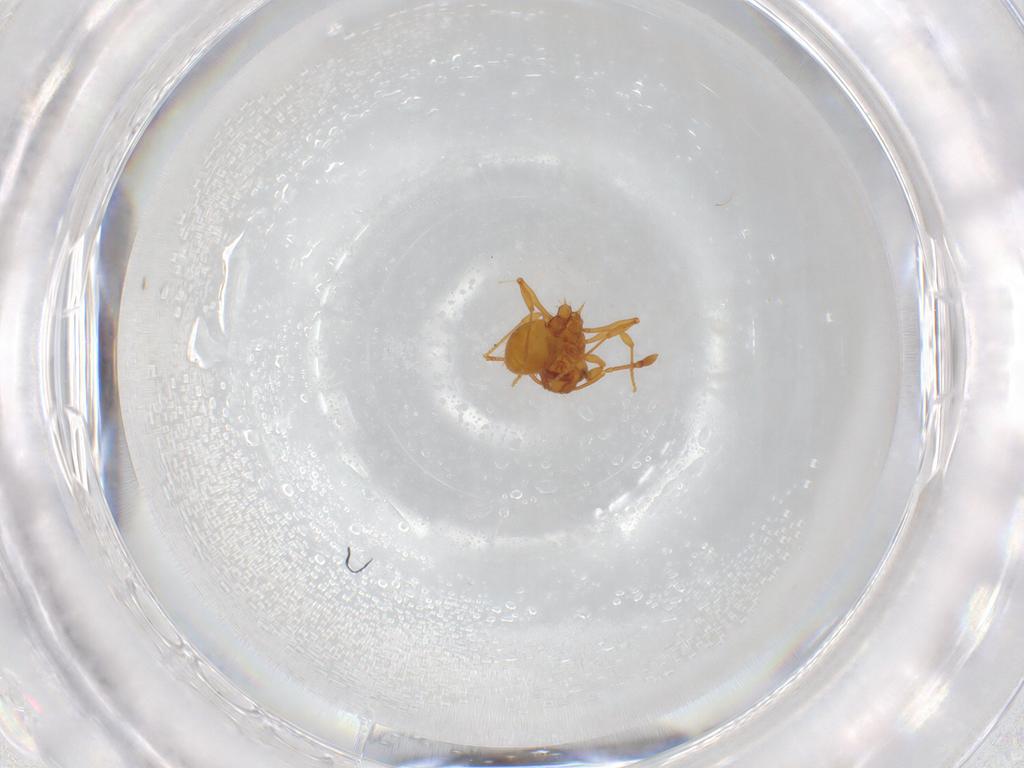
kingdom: Animalia
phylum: Arthropoda
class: Insecta
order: Hymenoptera
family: Formicidae
